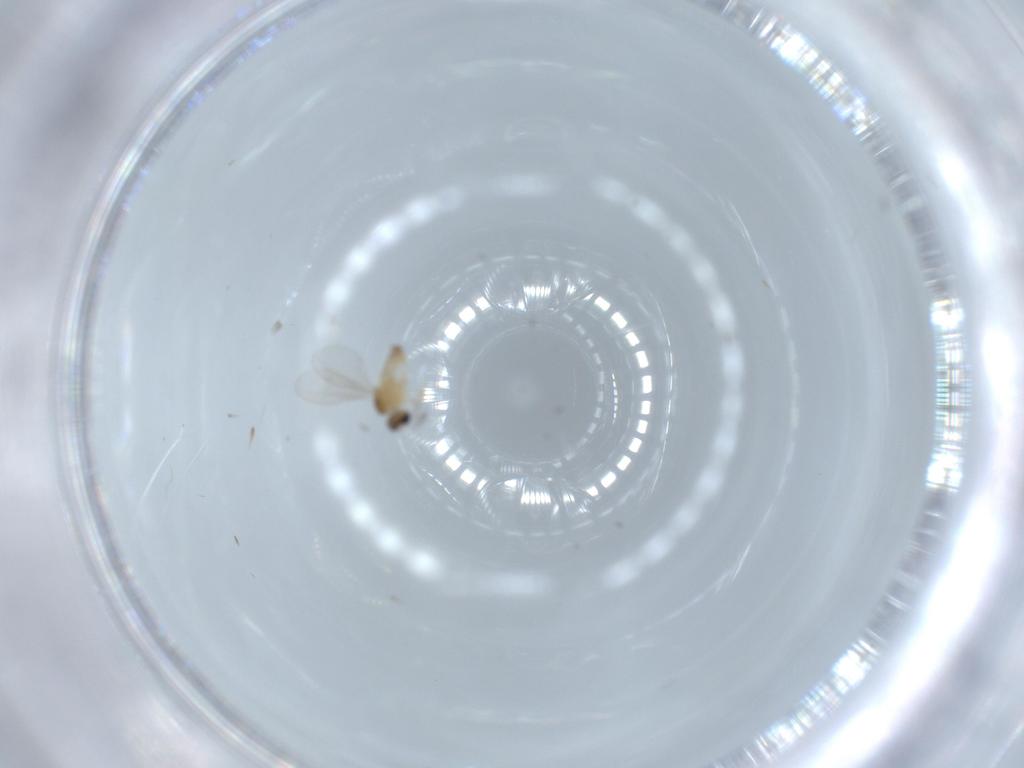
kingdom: Animalia
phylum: Arthropoda
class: Insecta
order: Diptera
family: Cecidomyiidae
